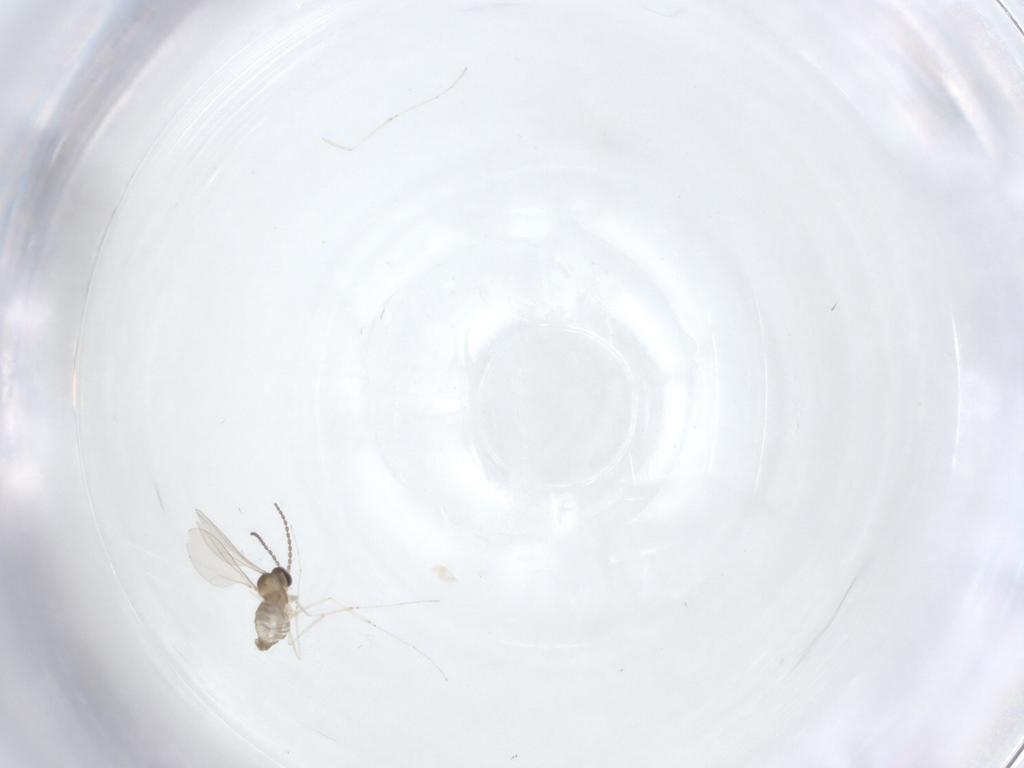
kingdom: Animalia
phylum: Arthropoda
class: Insecta
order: Diptera
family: Cecidomyiidae
